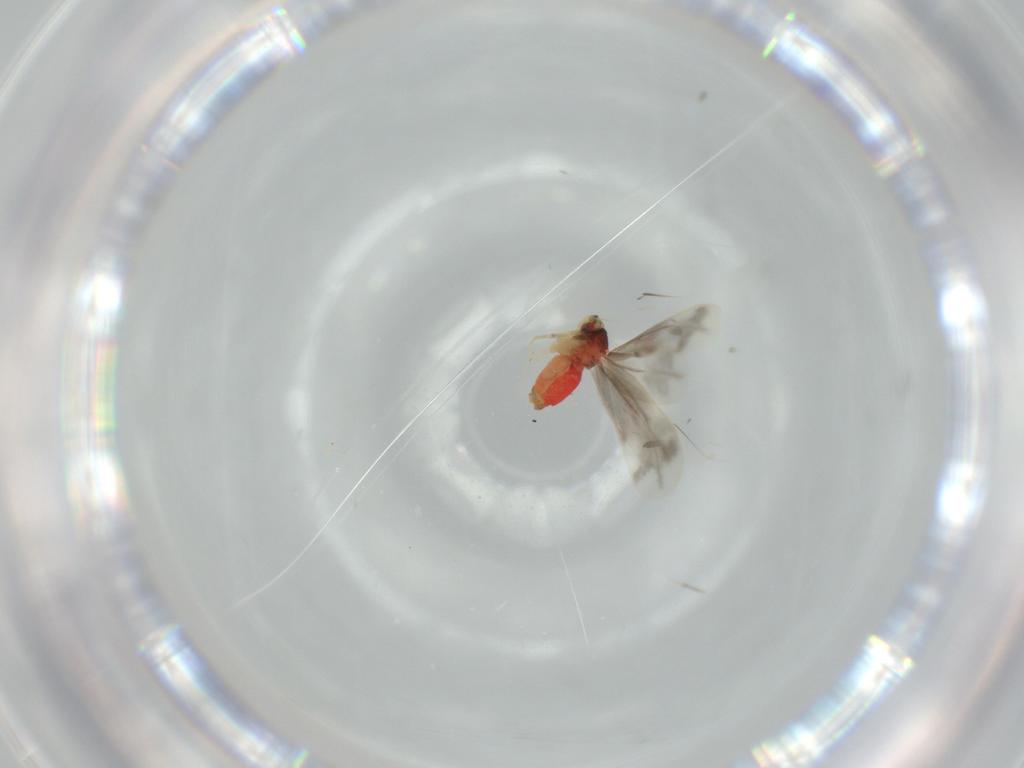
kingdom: Animalia
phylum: Arthropoda
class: Insecta
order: Hemiptera
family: Aleyrodidae
